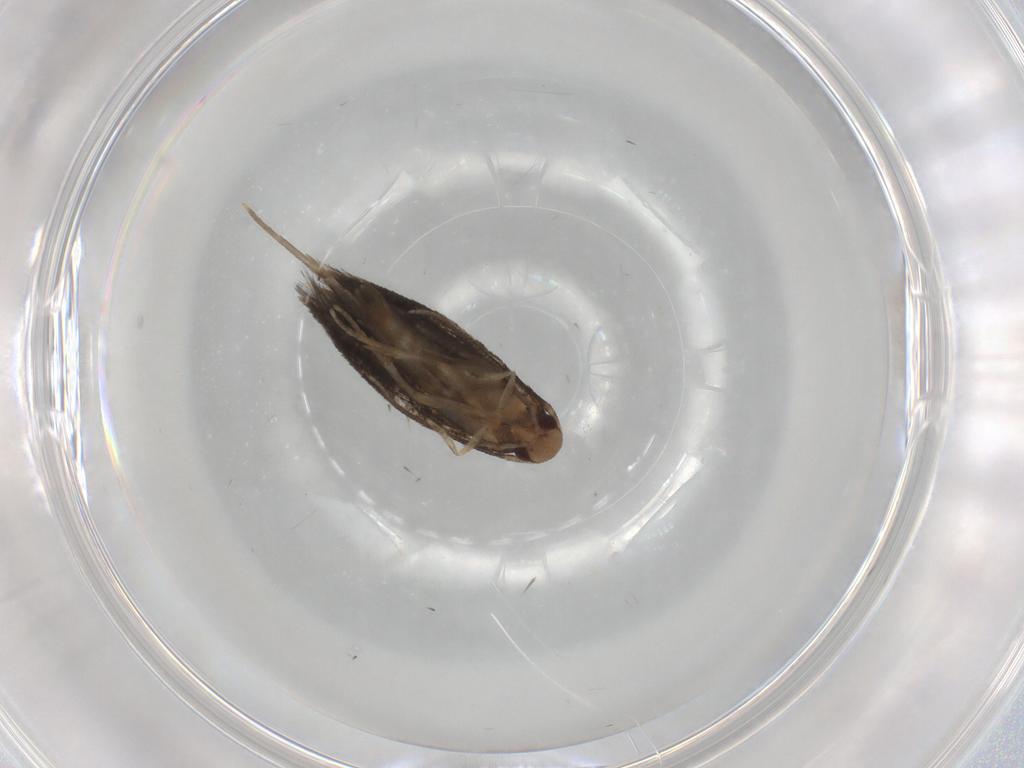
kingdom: Animalia
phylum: Arthropoda
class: Insecta
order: Lepidoptera
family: Gelechiidae
